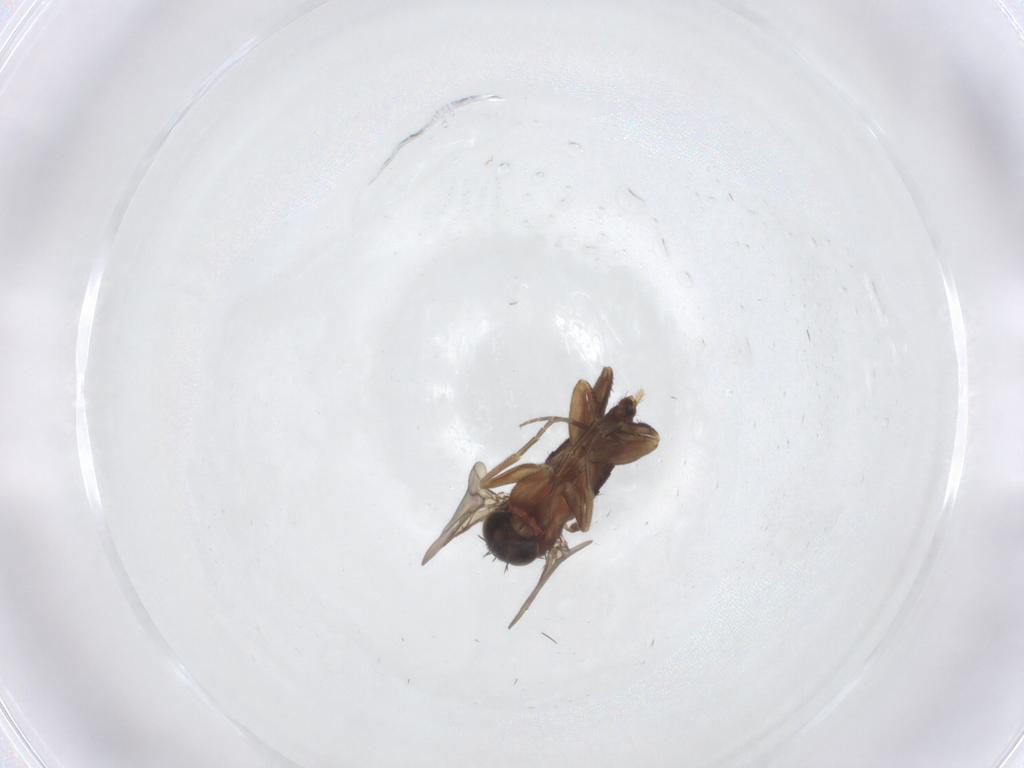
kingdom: Animalia
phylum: Arthropoda
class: Insecta
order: Diptera
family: Phoridae
